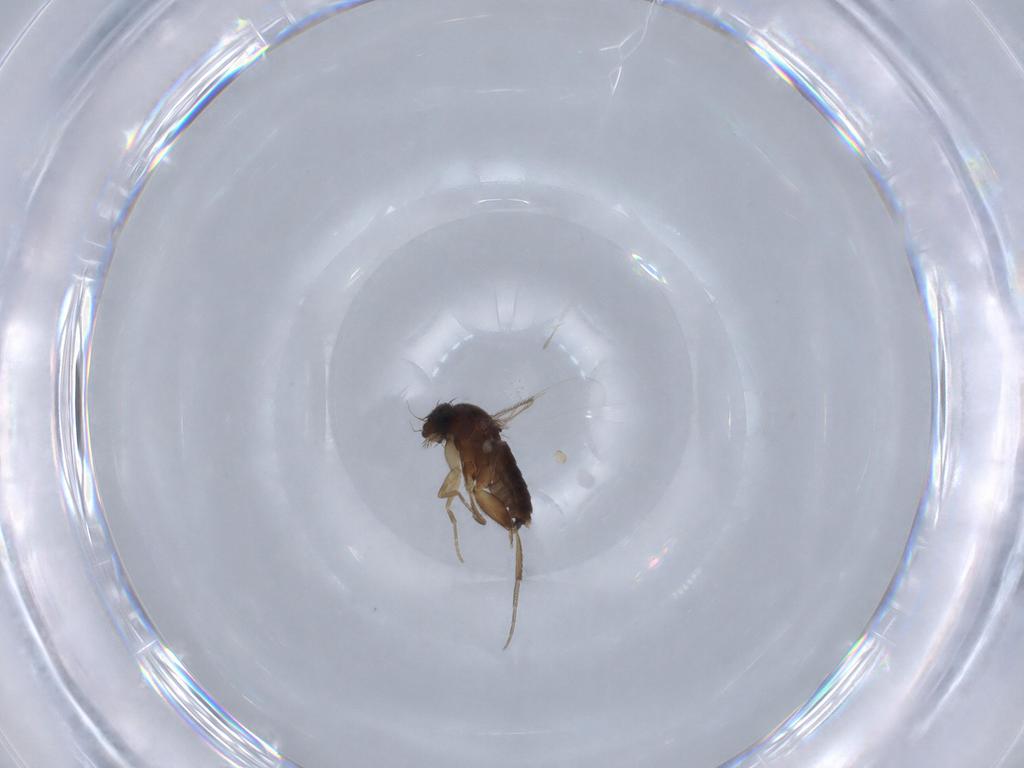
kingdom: Animalia
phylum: Arthropoda
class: Insecta
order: Diptera
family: Phoridae
